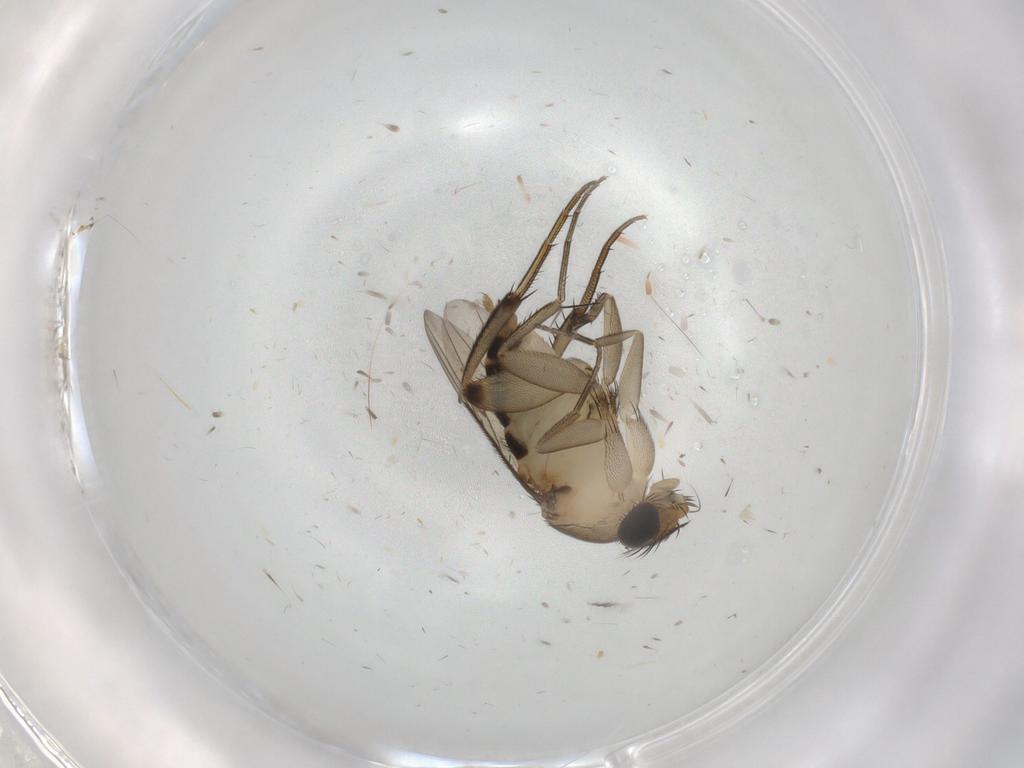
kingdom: Animalia
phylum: Arthropoda
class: Insecta
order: Diptera
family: Phoridae
